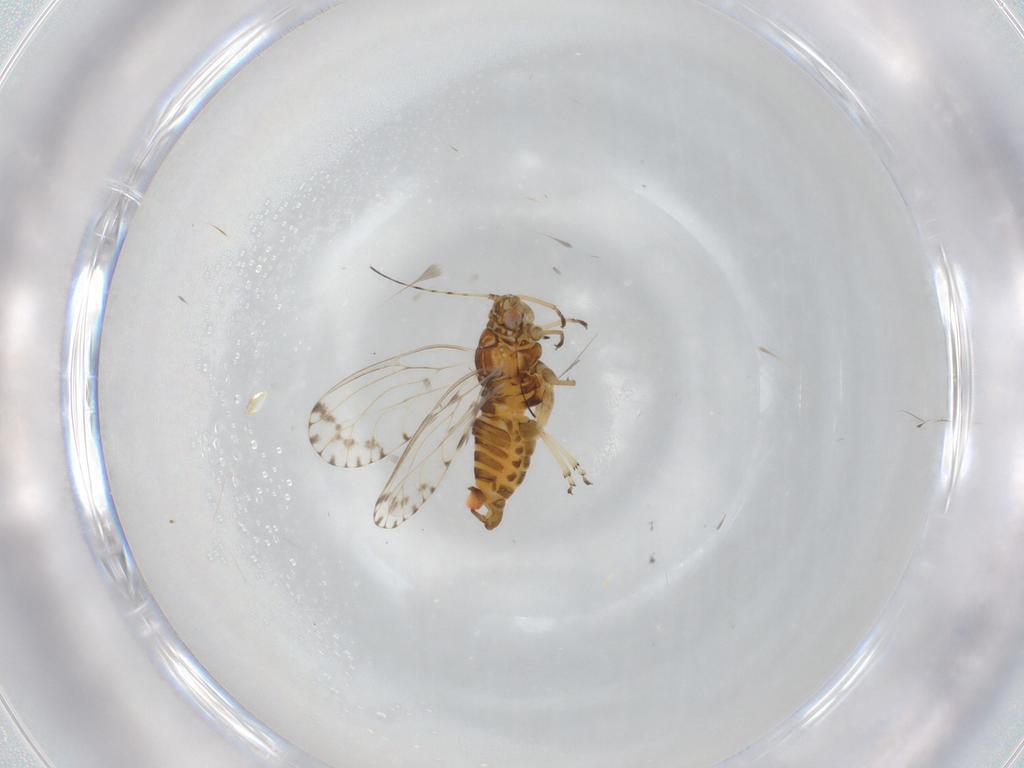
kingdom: Animalia
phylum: Arthropoda
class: Insecta
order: Hemiptera
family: Psyllidae
